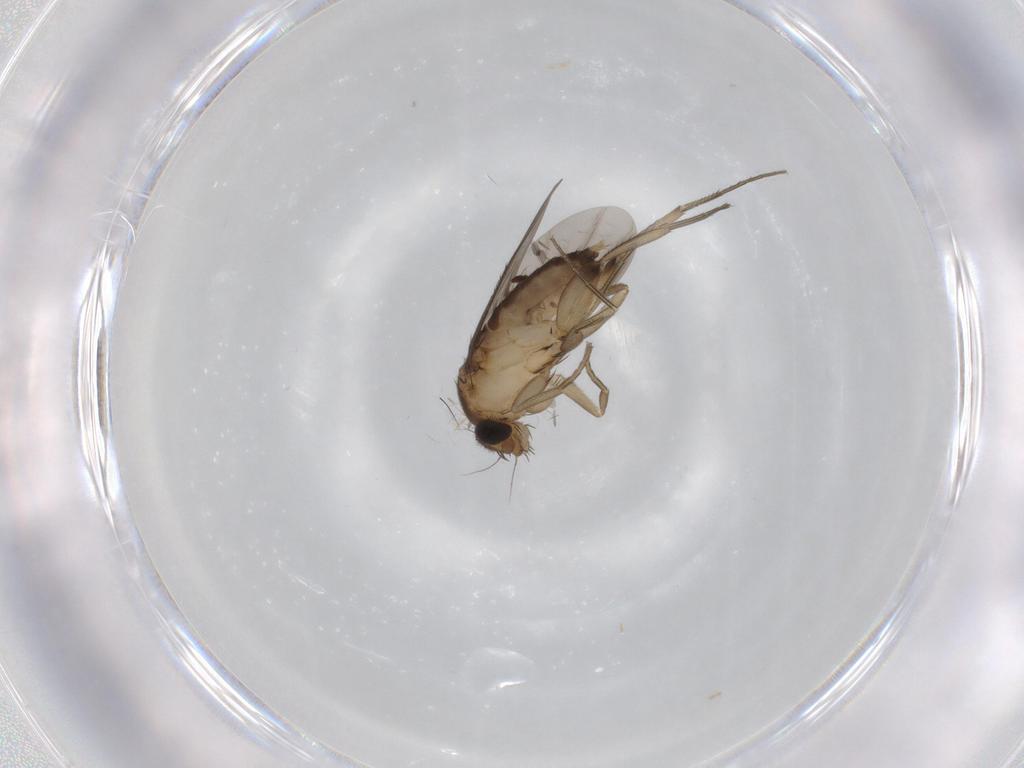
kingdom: Animalia
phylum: Arthropoda
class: Insecta
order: Diptera
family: Phoridae
